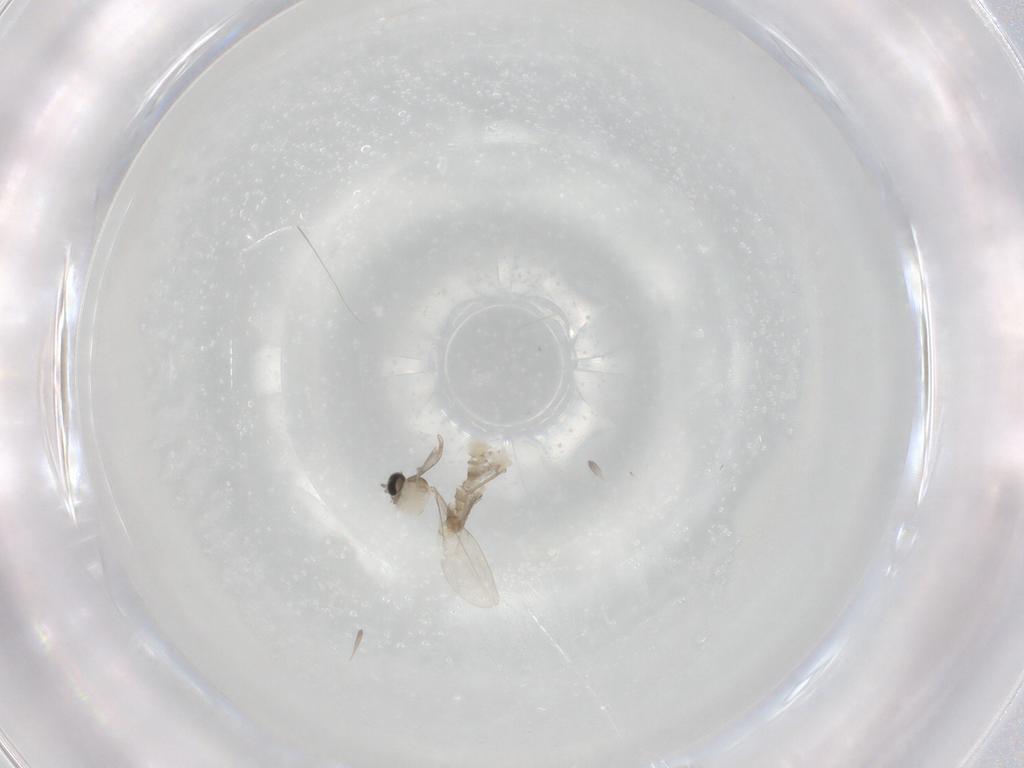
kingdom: Animalia
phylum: Arthropoda
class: Insecta
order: Diptera
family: Cecidomyiidae
